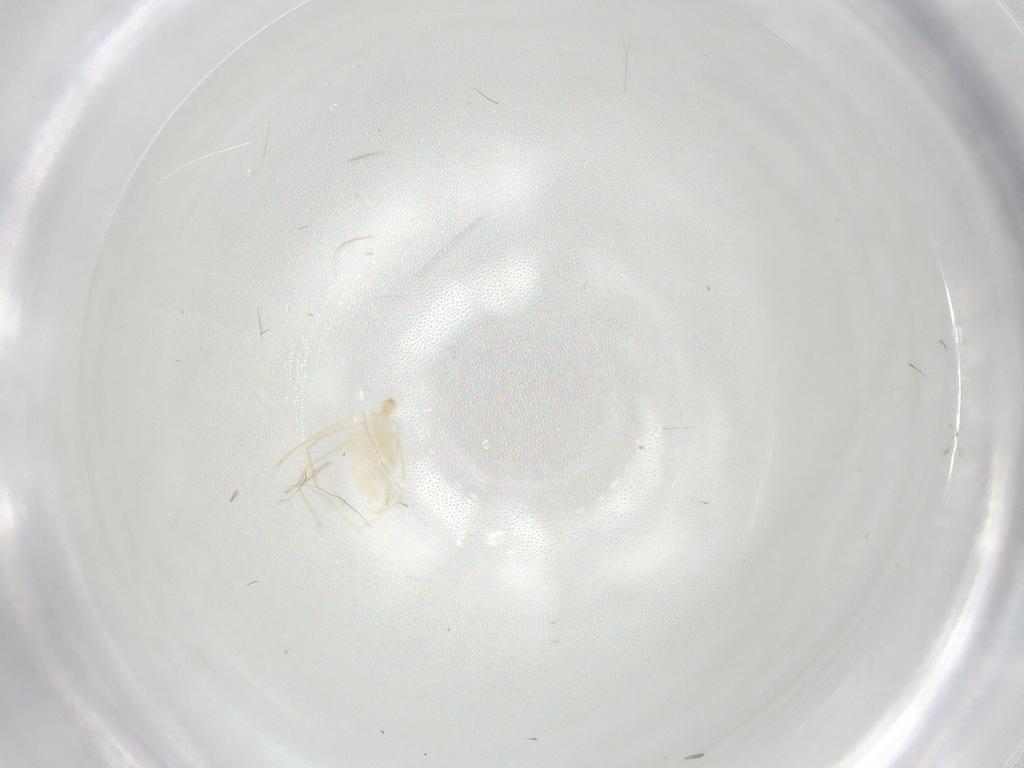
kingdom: Animalia
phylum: Arthropoda
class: Arachnida
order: Trombidiformes
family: Erythraeidae
